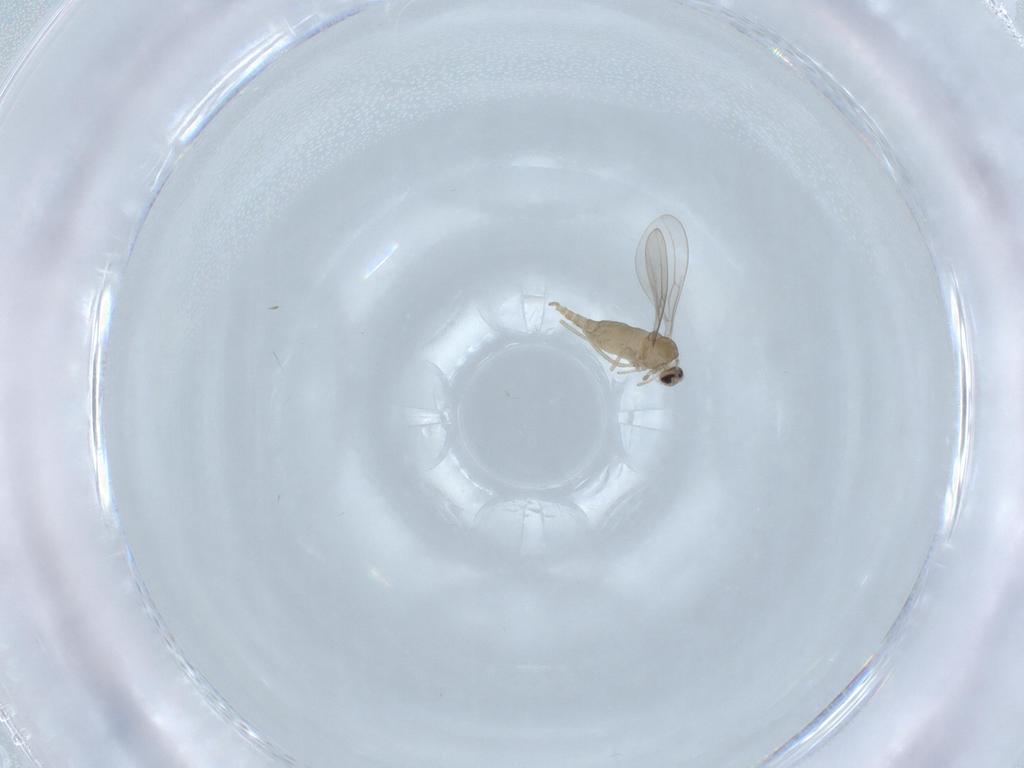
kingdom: Animalia
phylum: Arthropoda
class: Insecta
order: Diptera
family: Cecidomyiidae
